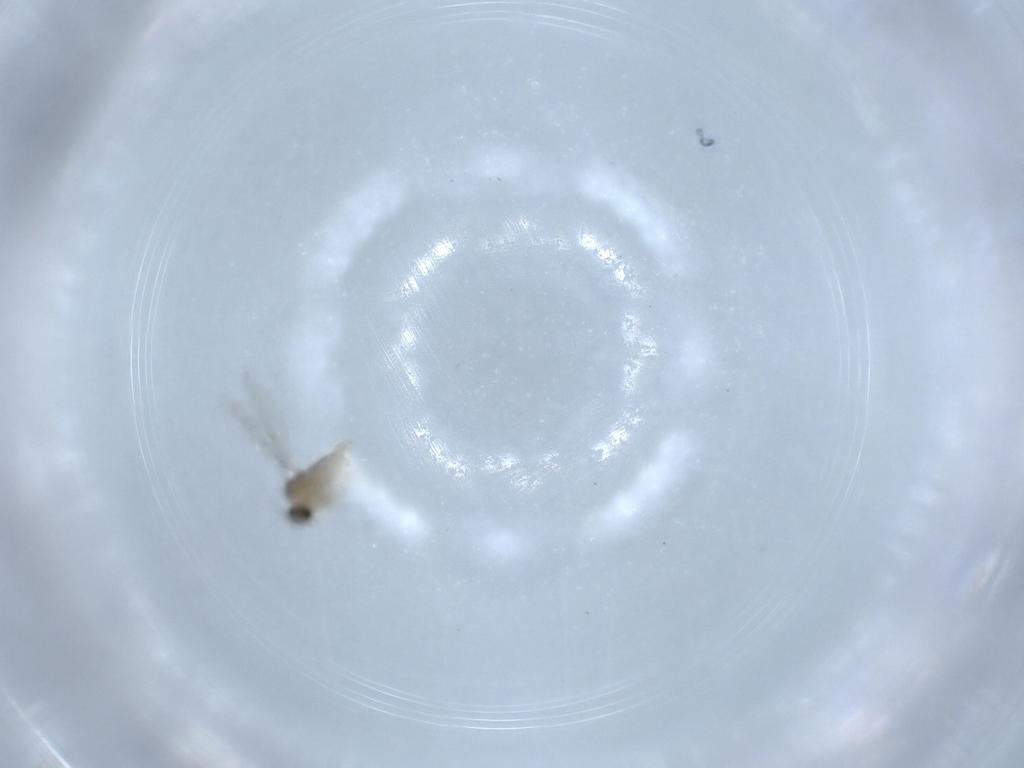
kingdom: Animalia
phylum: Arthropoda
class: Insecta
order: Diptera
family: Cecidomyiidae
